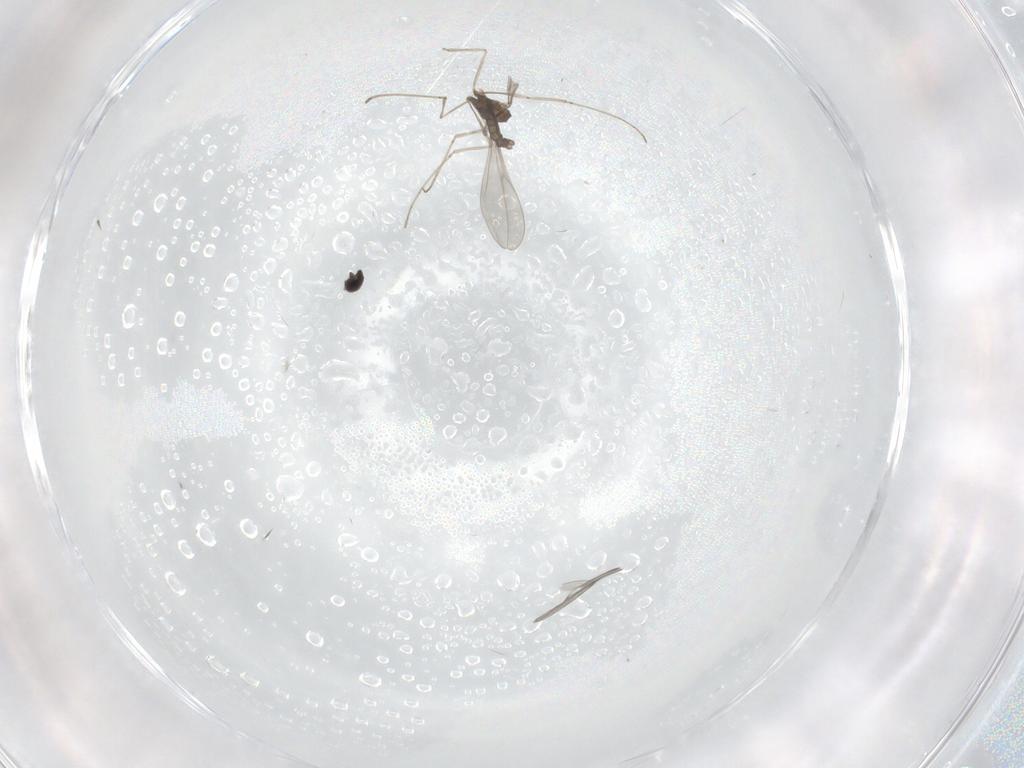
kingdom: Animalia
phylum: Arthropoda
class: Insecta
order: Diptera
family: Cecidomyiidae
